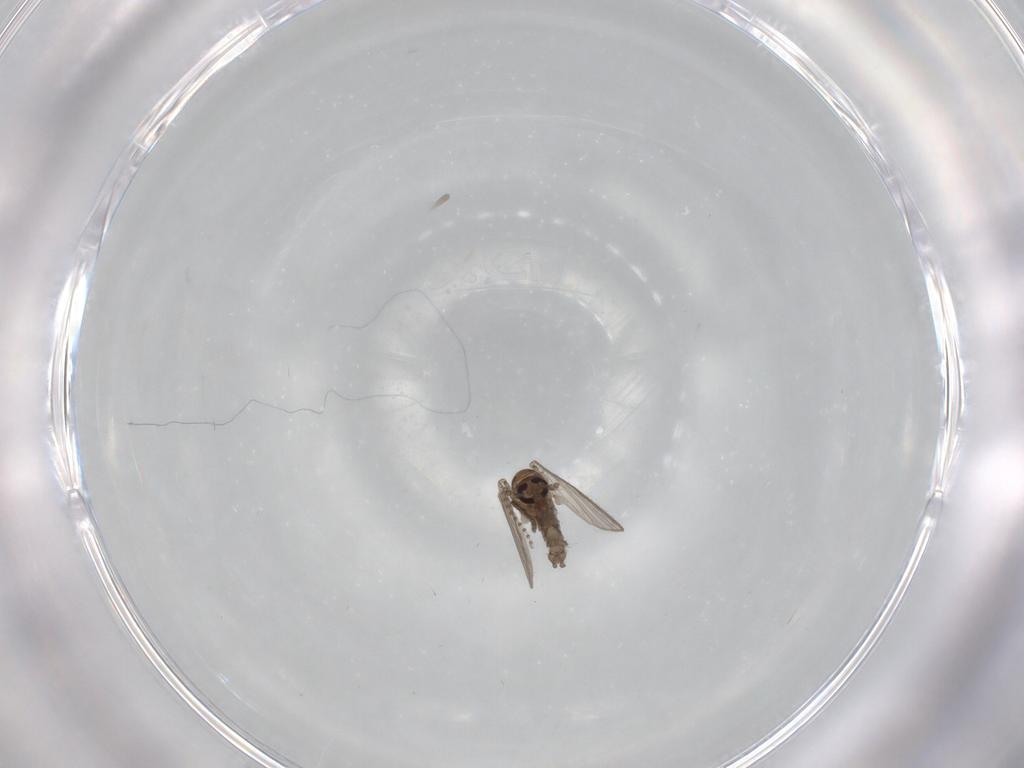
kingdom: Animalia
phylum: Arthropoda
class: Insecta
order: Diptera
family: Psychodidae
